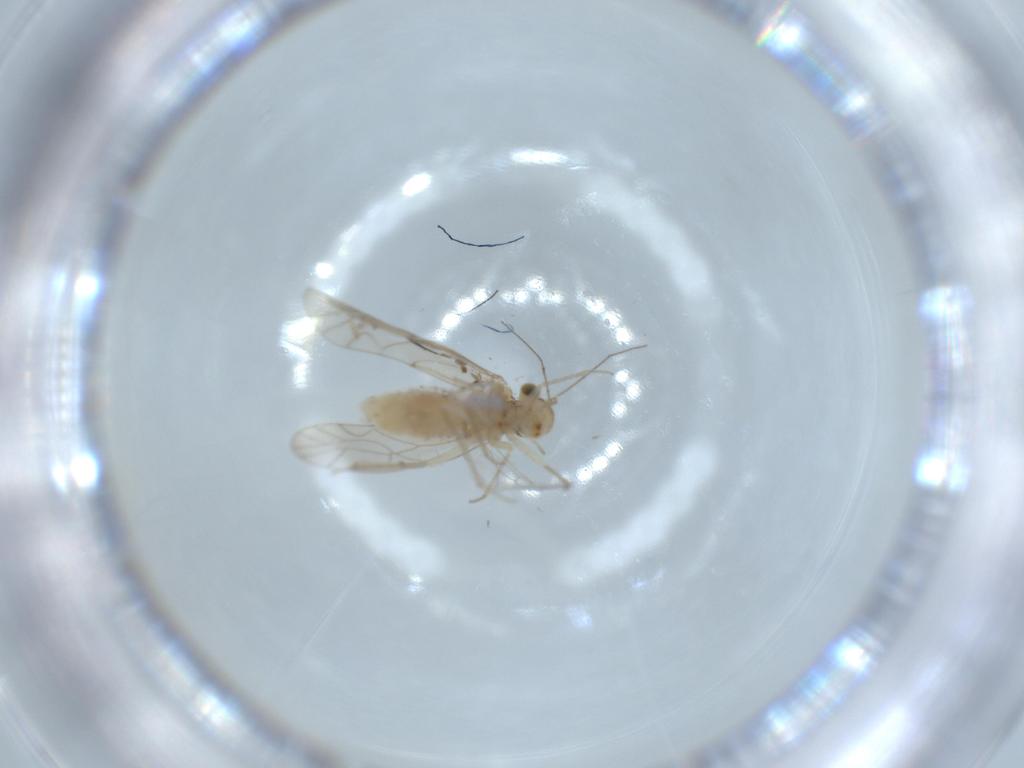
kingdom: Animalia
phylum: Arthropoda
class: Insecta
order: Psocodea
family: Lachesillidae
